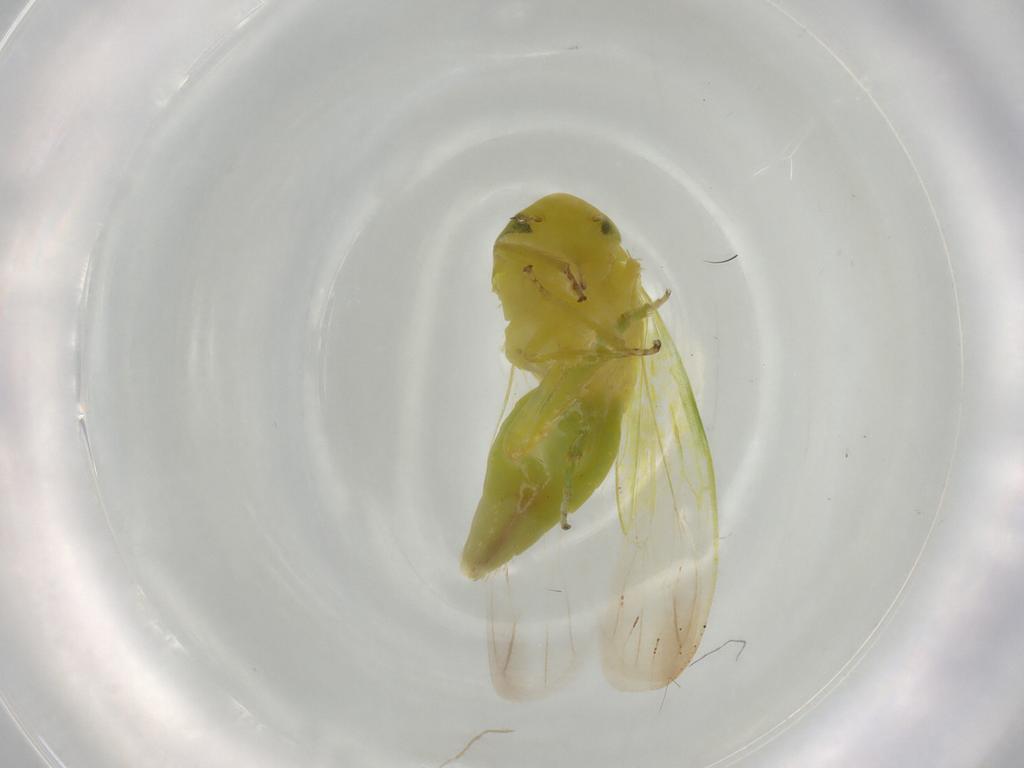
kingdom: Animalia
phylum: Arthropoda
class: Insecta
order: Hemiptera
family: Cicadellidae
